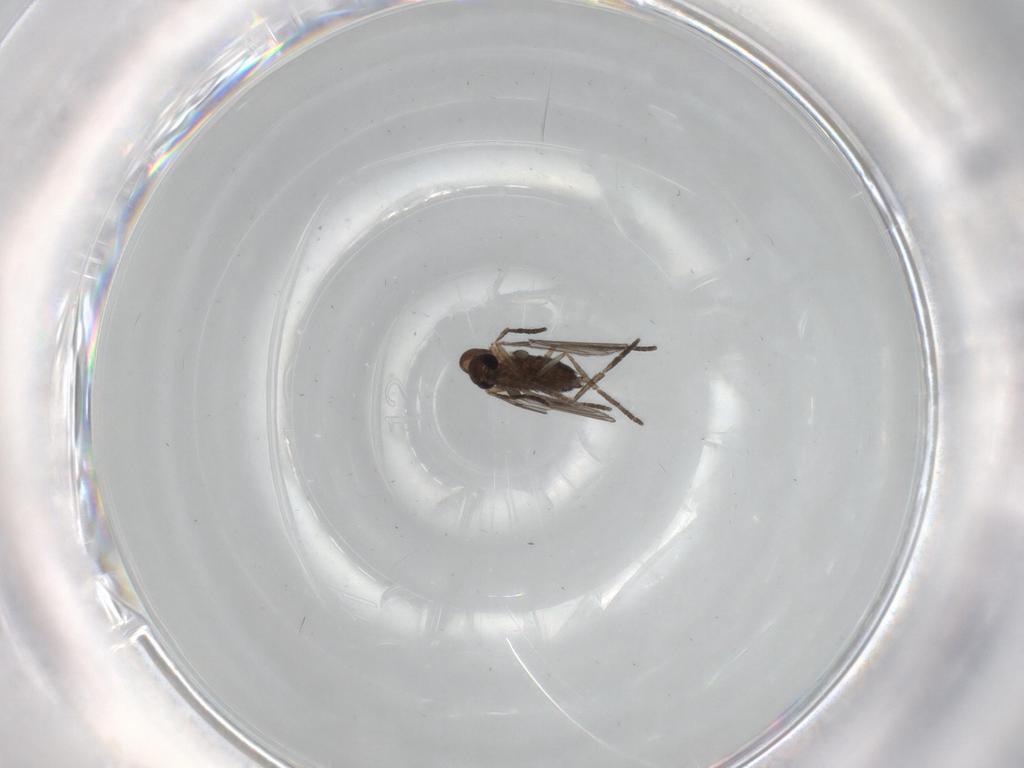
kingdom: Animalia
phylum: Arthropoda
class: Insecta
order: Diptera
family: Cecidomyiidae
